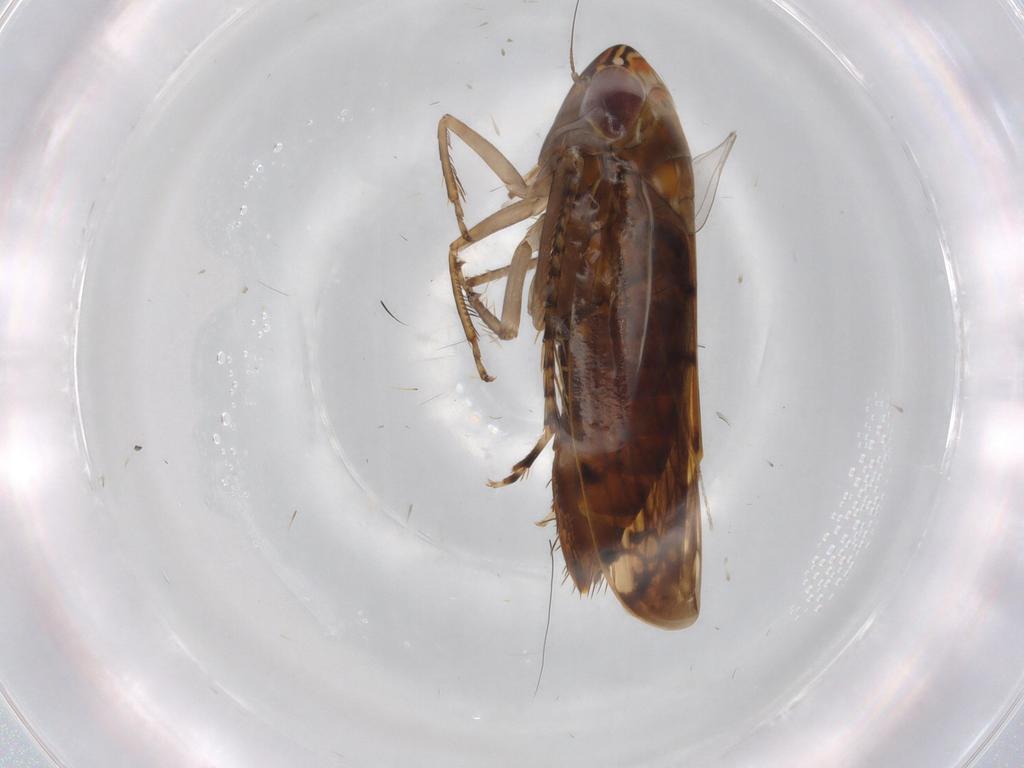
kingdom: Animalia
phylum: Arthropoda
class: Insecta
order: Hemiptera
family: Cicadellidae
